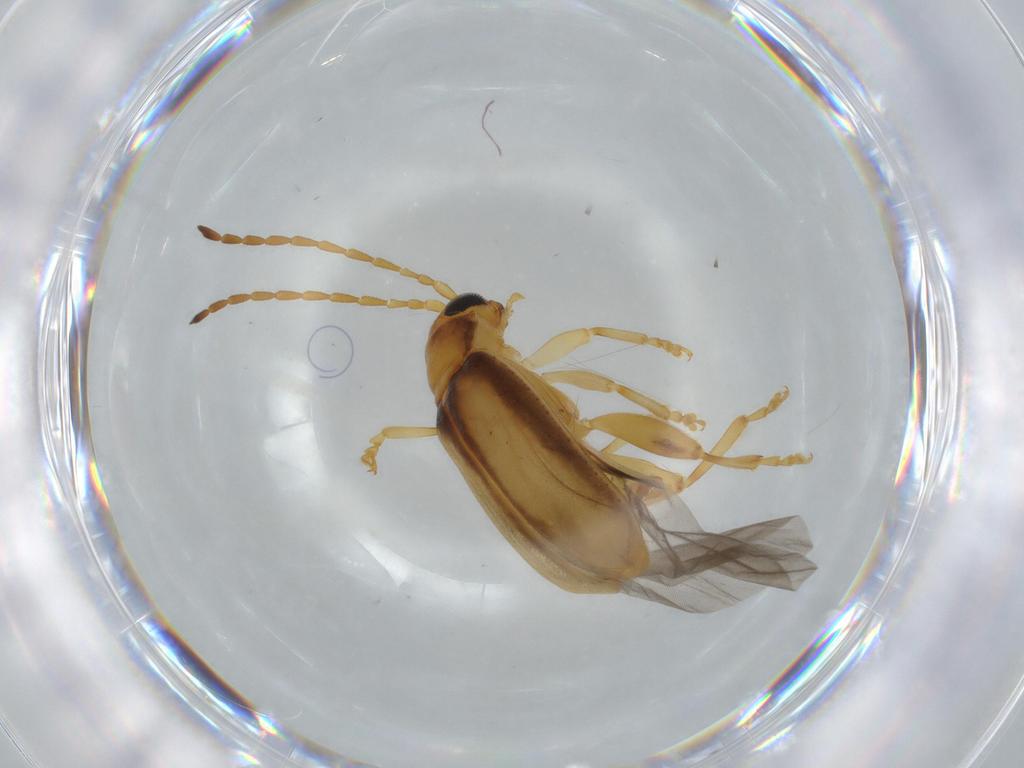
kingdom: Animalia
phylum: Arthropoda
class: Insecta
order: Coleoptera
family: Chrysomelidae
